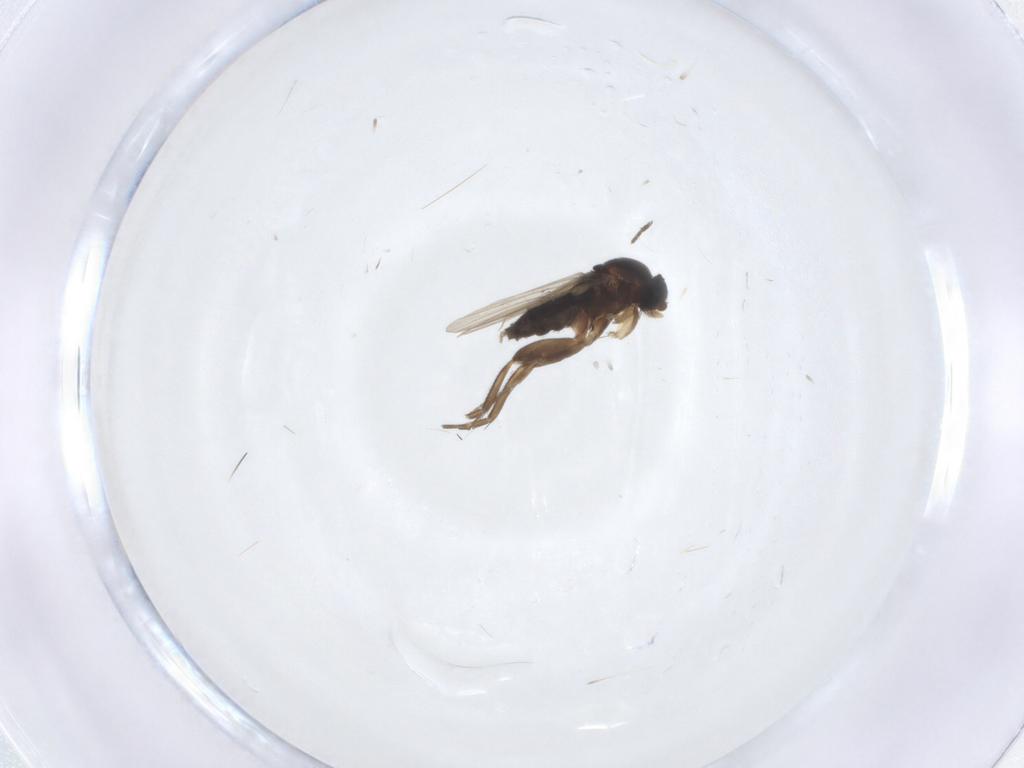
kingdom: Animalia
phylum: Arthropoda
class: Insecta
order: Diptera
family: Phoridae
